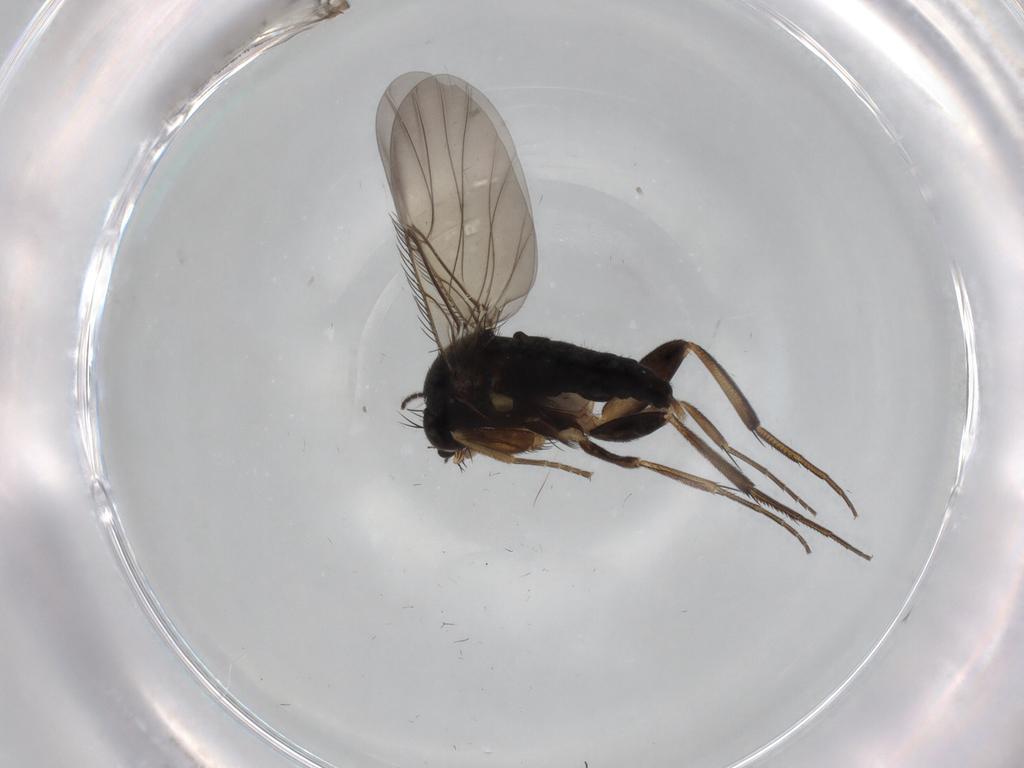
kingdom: Animalia
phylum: Arthropoda
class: Insecta
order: Diptera
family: Phoridae
